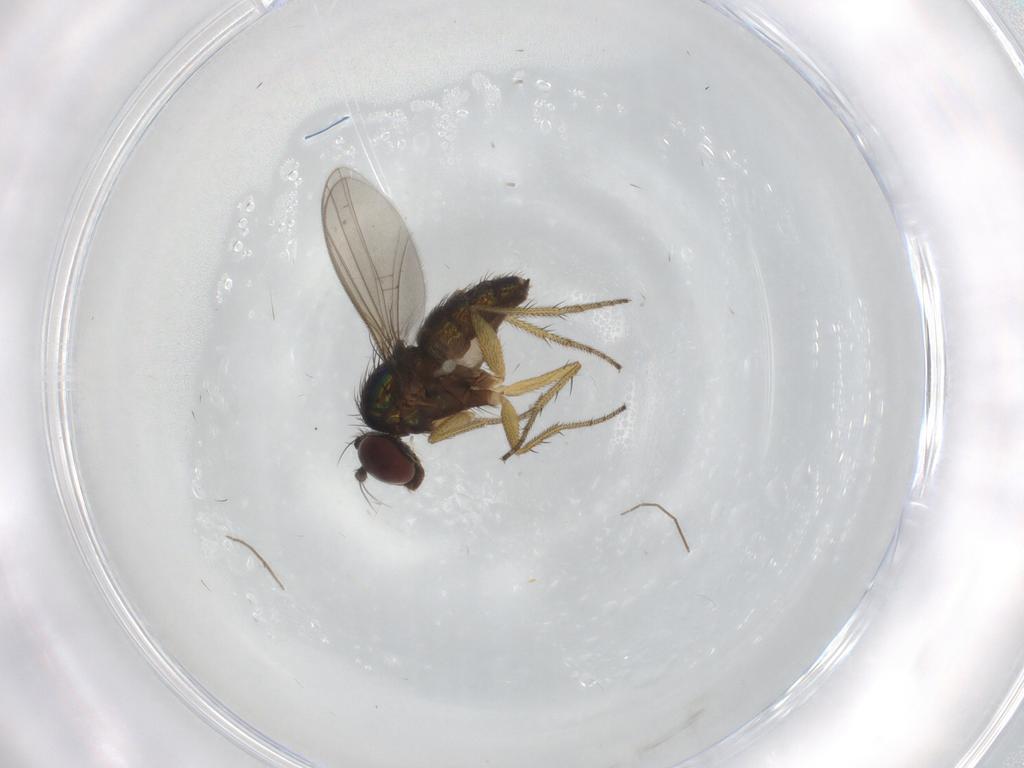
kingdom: Animalia
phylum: Arthropoda
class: Insecta
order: Diptera
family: Dolichopodidae
